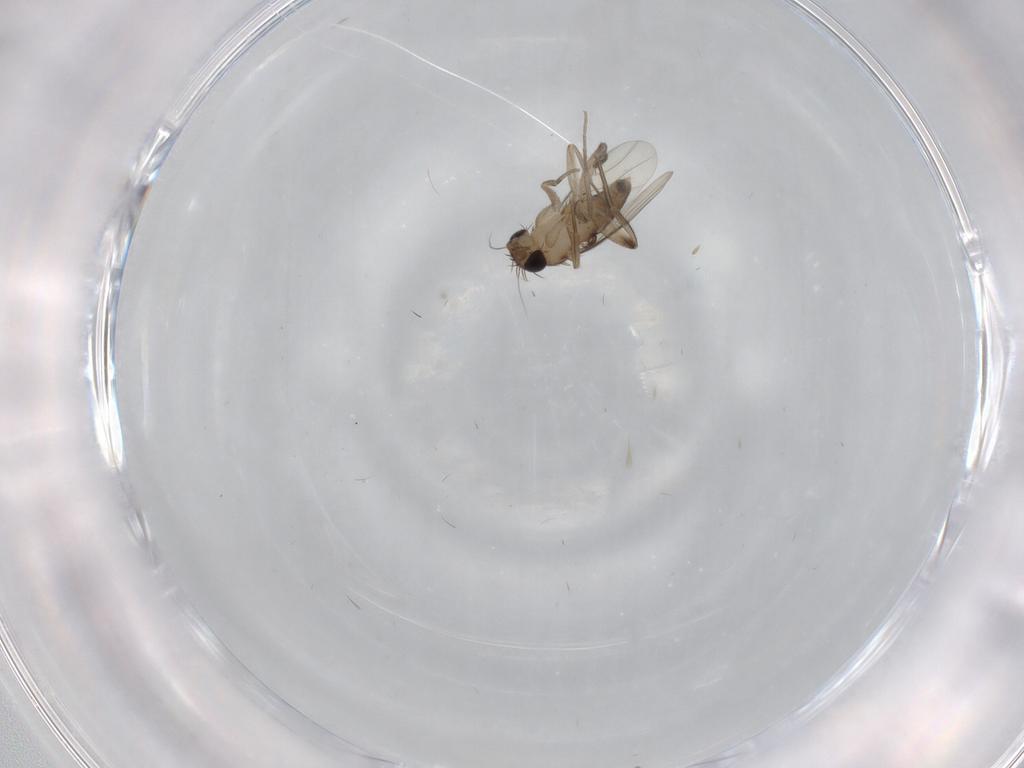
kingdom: Animalia
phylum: Arthropoda
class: Insecta
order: Diptera
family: Phoridae
